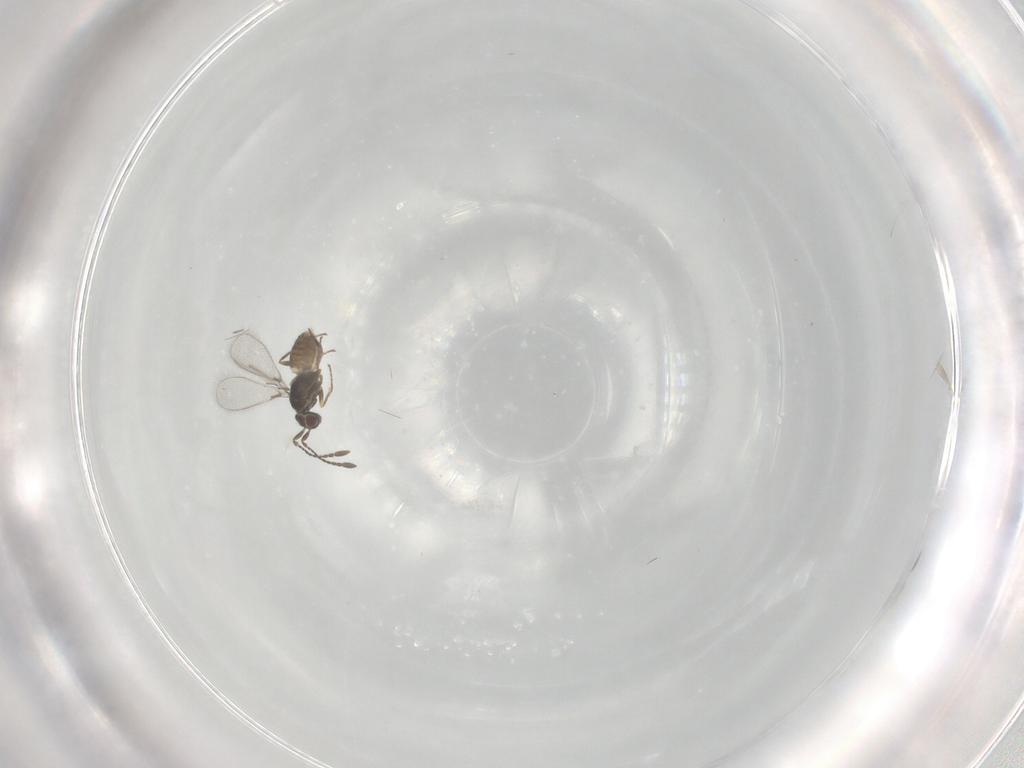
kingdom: Animalia
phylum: Arthropoda
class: Insecta
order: Hymenoptera
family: Mymaridae
